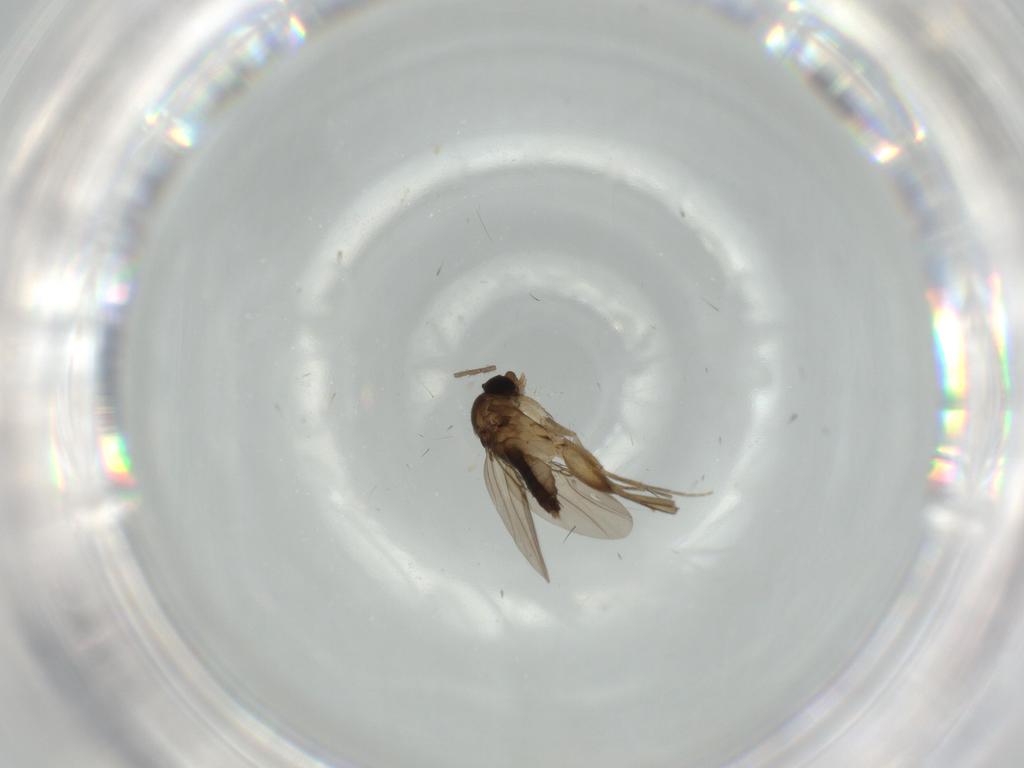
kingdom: Animalia
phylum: Arthropoda
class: Insecta
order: Diptera
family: Phoridae
